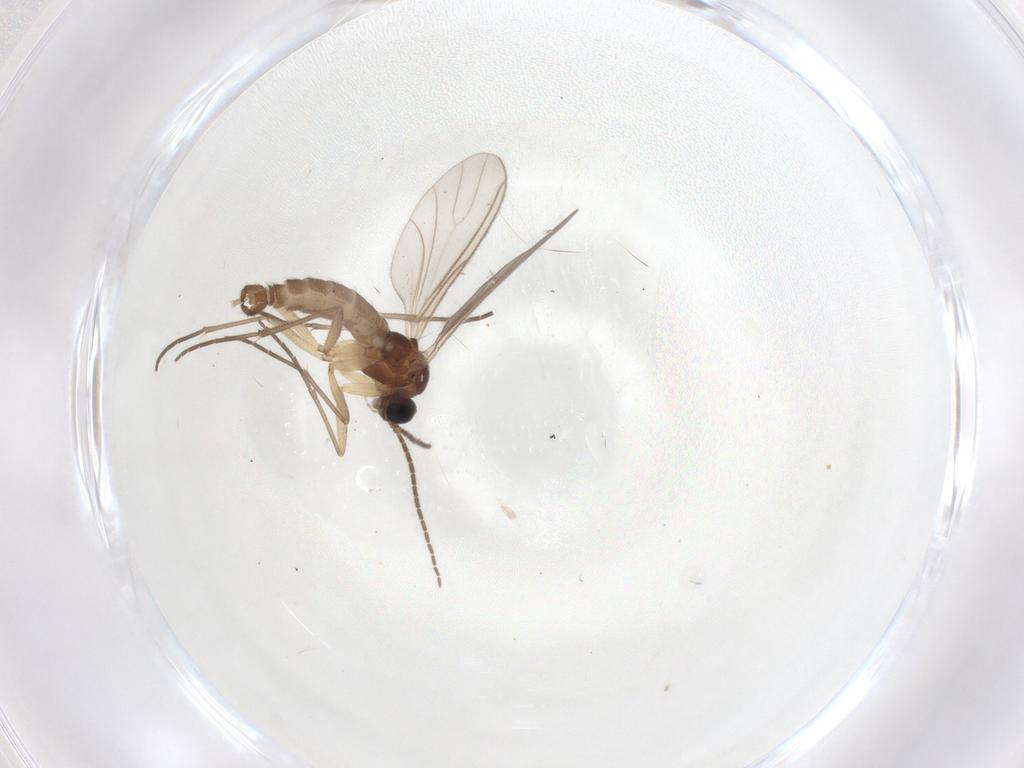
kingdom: Animalia
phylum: Arthropoda
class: Insecta
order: Diptera
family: Sciaridae
